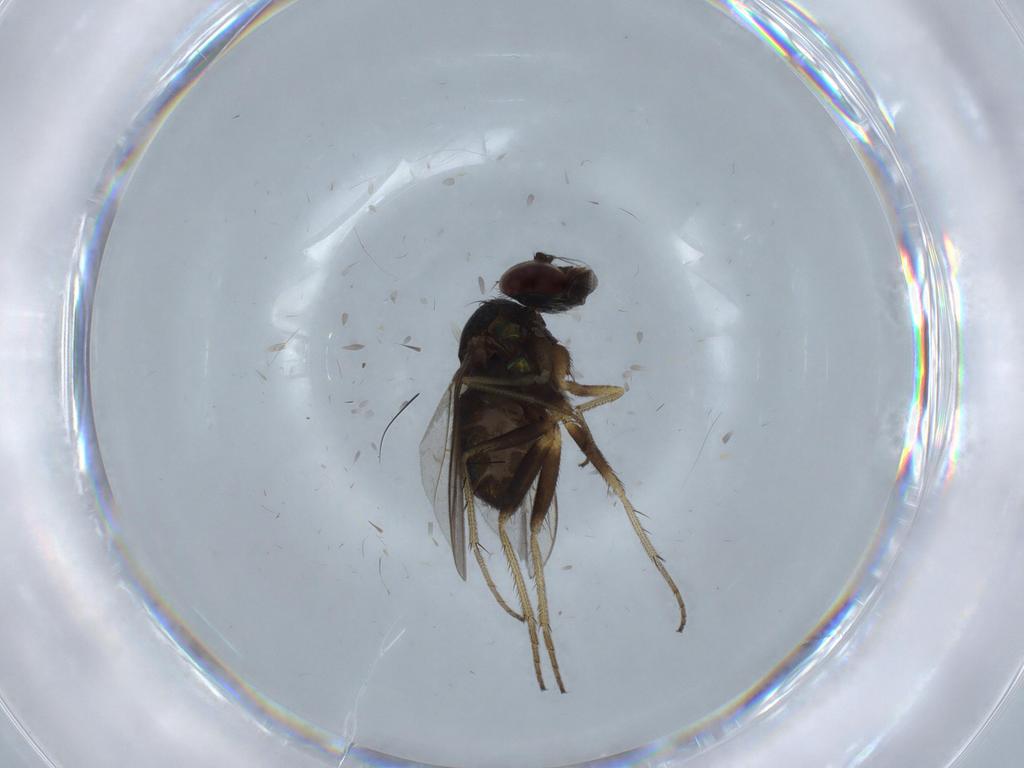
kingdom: Animalia
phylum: Arthropoda
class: Insecta
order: Diptera
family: Dolichopodidae
